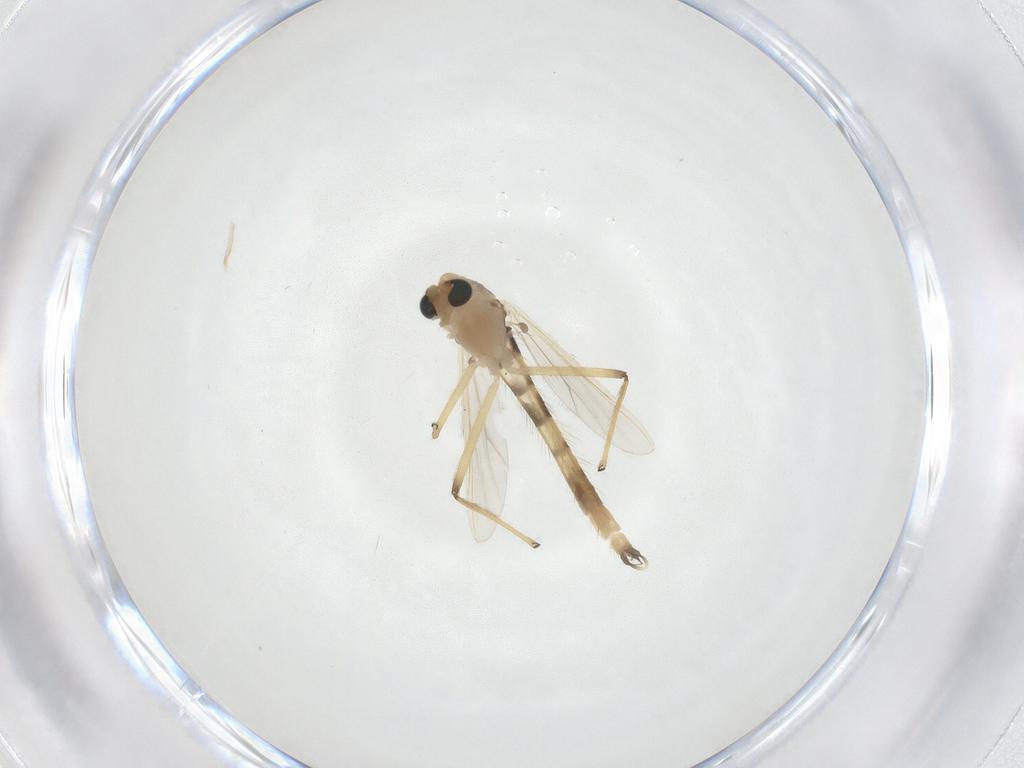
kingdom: Animalia
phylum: Arthropoda
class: Insecta
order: Diptera
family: Chironomidae
